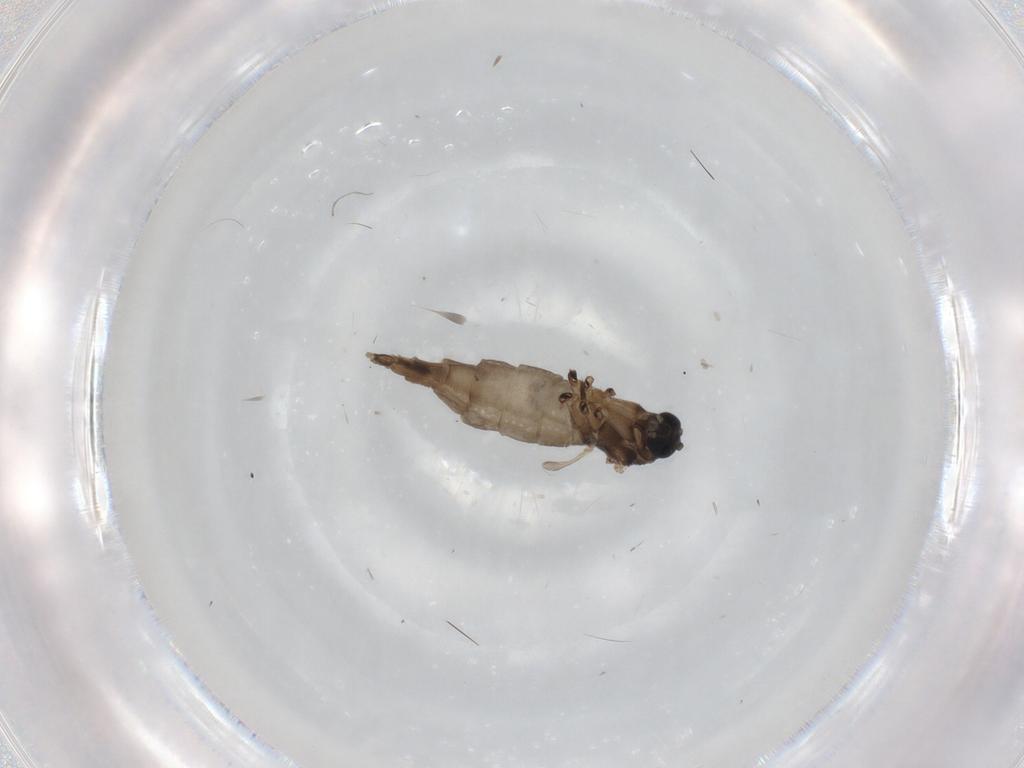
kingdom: Animalia
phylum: Arthropoda
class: Insecta
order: Diptera
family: Sciaridae
